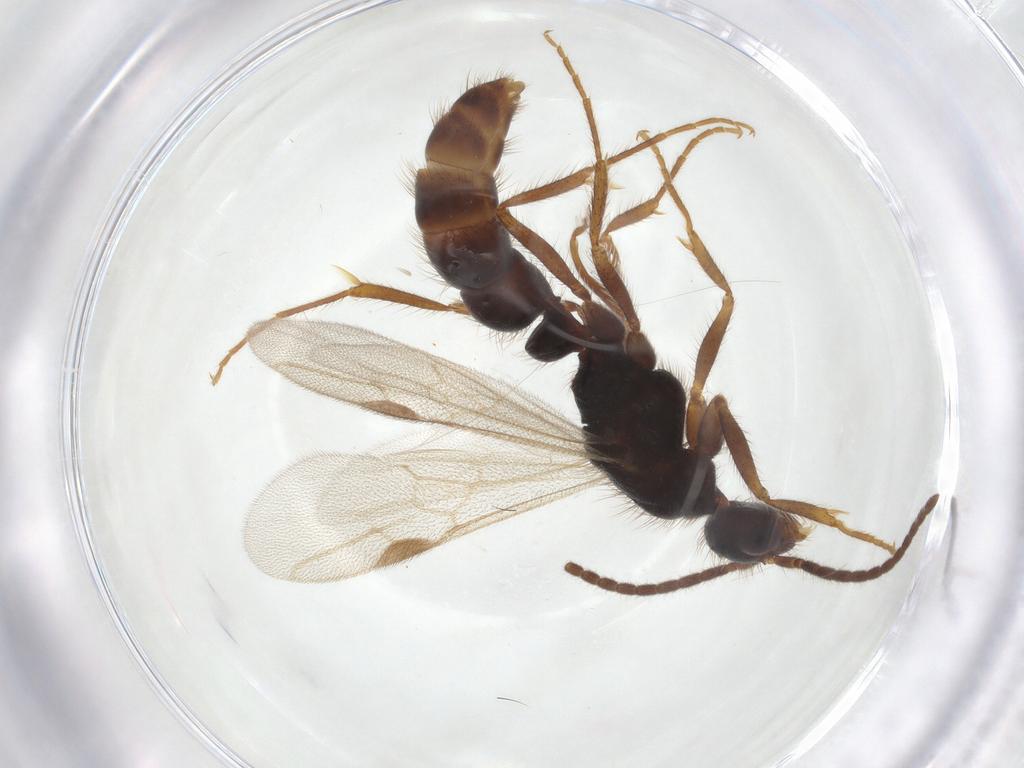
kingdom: Animalia
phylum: Arthropoda
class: Insecta
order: Hymenoptera
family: Formicidae
